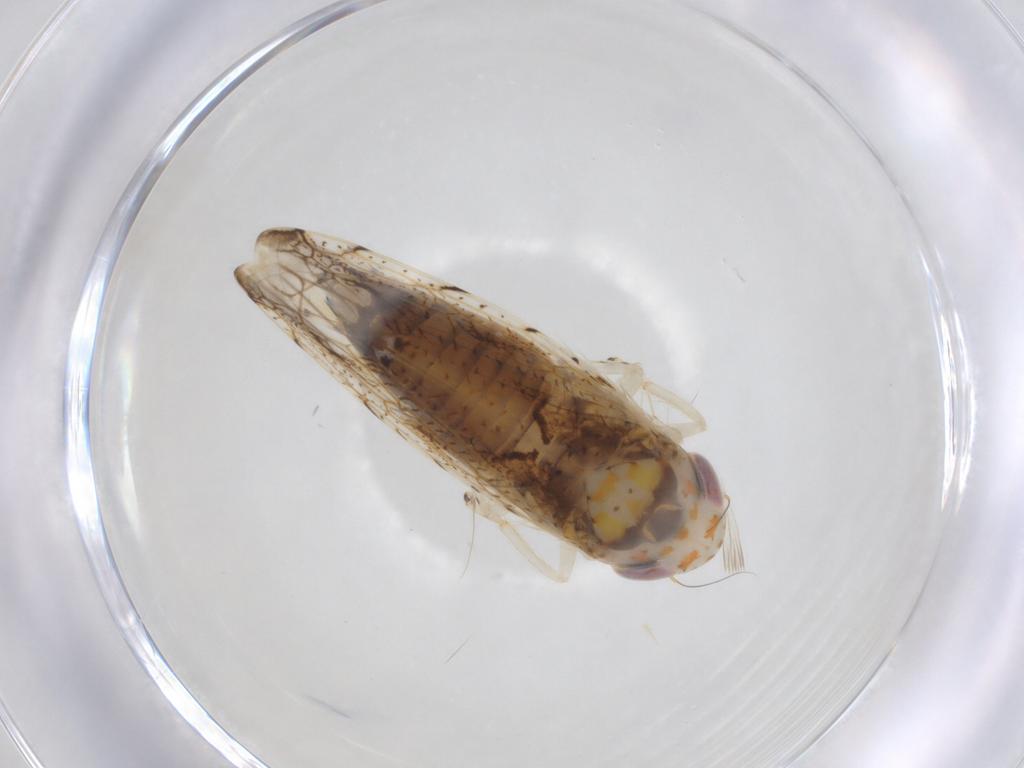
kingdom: Animalia
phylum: Arthropoda
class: Insecta
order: Hemiptera
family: Cicadellidae
